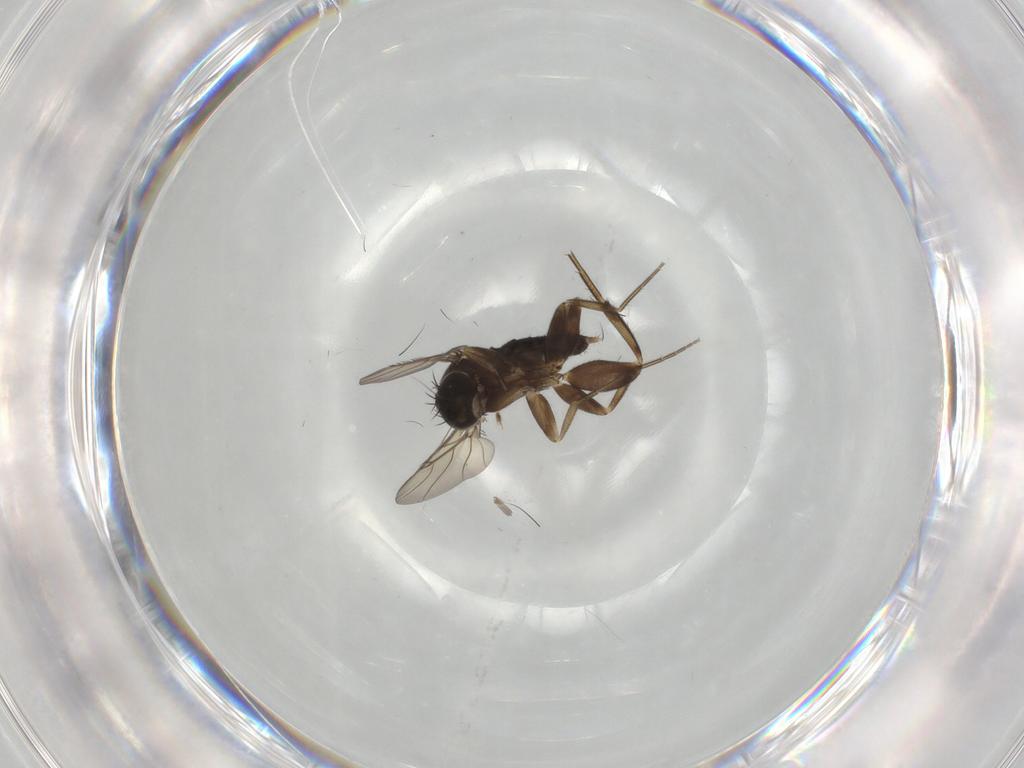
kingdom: Animalia
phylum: Arthropoda
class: Insecta
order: Diptera
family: Phoridae
